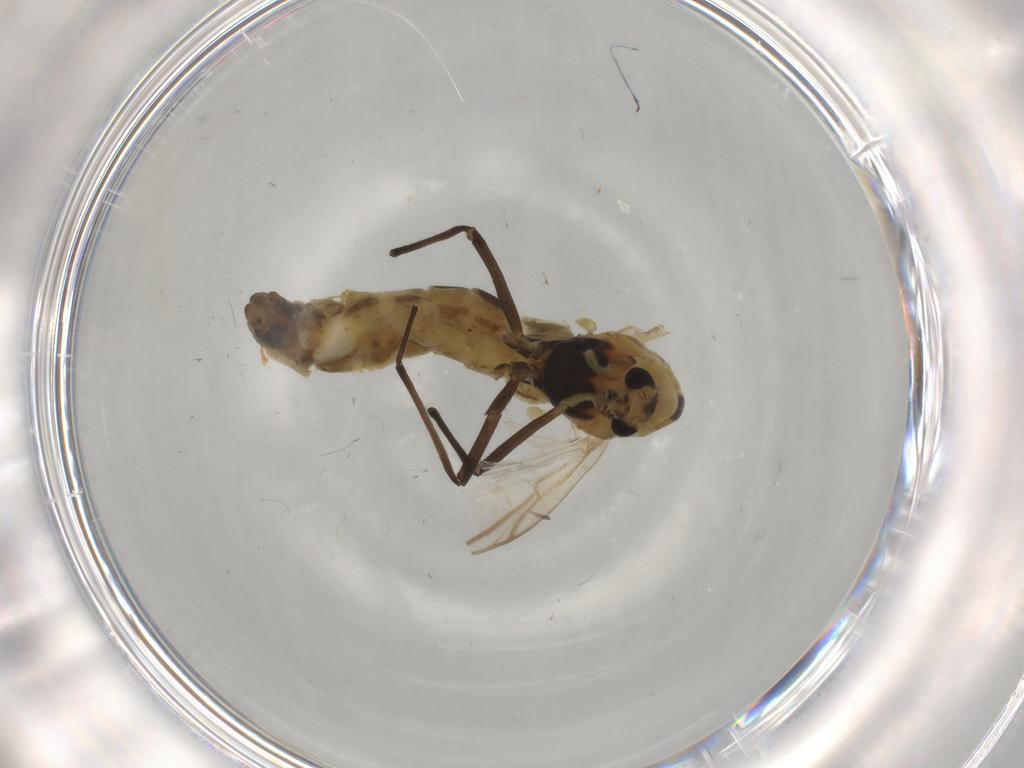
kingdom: Animalia
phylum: Arthropoda
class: Insecta
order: Diptera
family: Chironomidae
